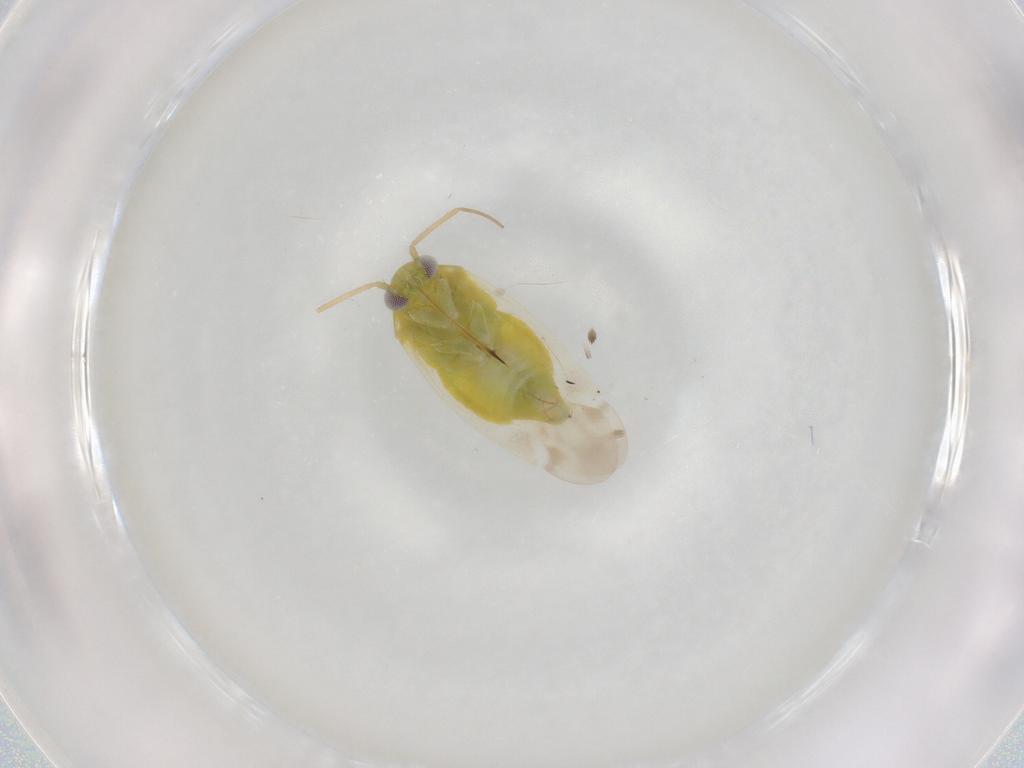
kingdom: Animalia
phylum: Arthropoda
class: Insecta
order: Hemiptera
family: Miridae
